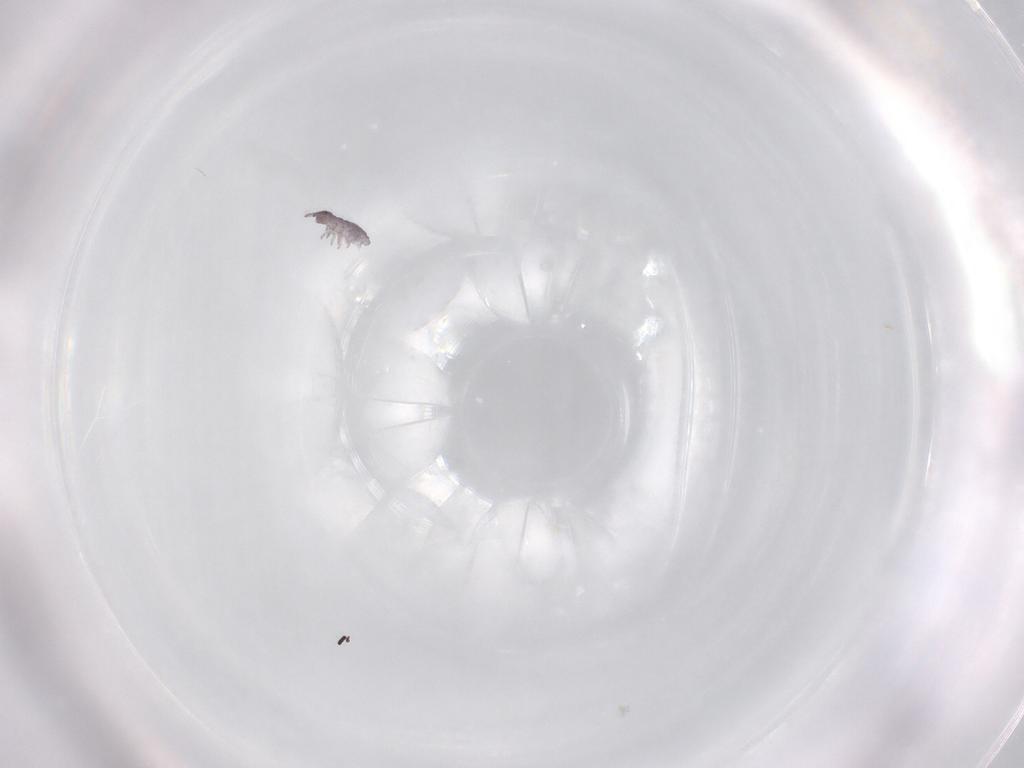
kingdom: Animalia
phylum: Arthropoda
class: Collembola
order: Poduromorpha
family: Hypogastruridae
